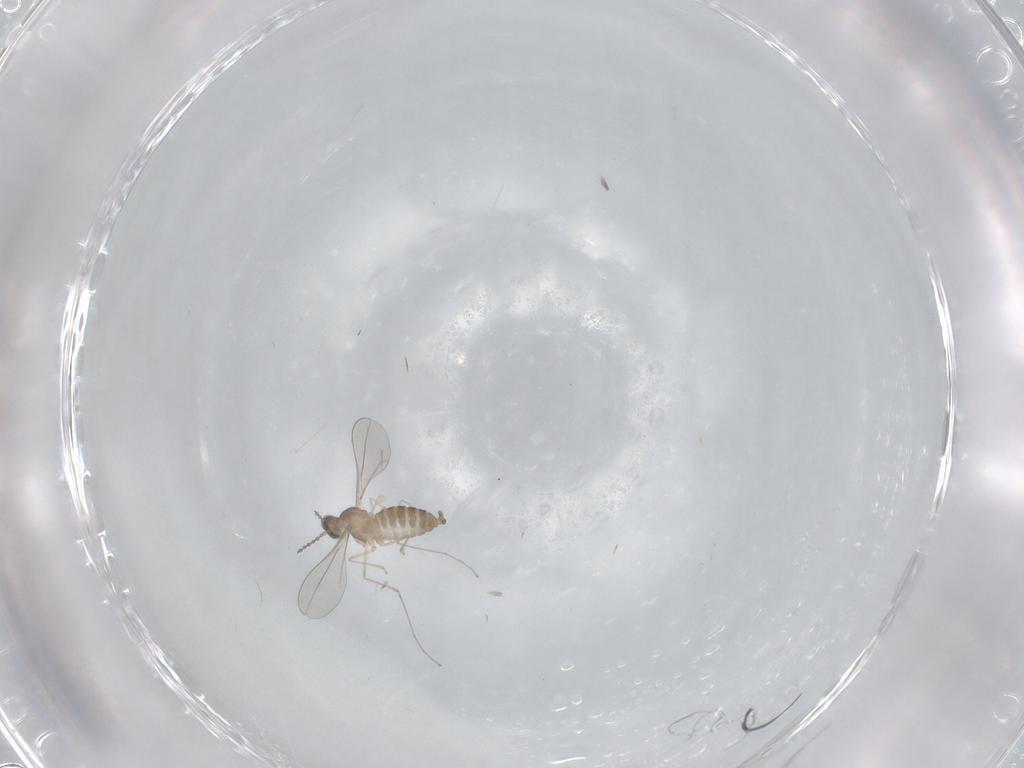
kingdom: Animalia
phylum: Arthropoda
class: Insecta
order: Diptera
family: Cecidomyiidae
